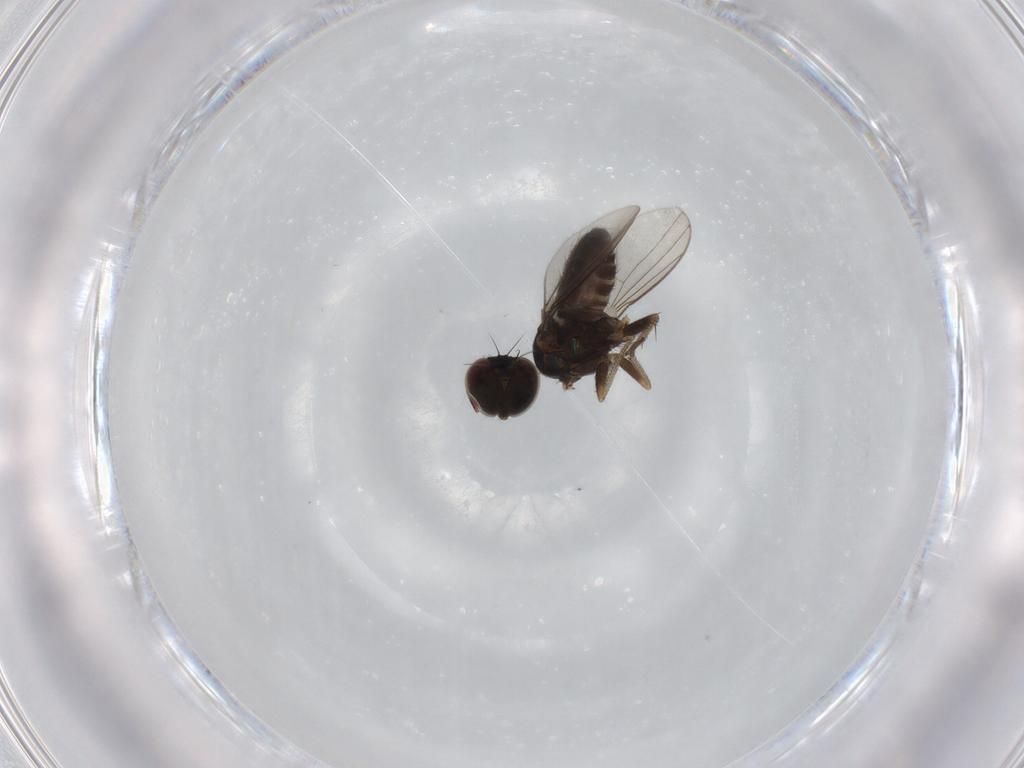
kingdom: Animalia
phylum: Arthropoda
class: Insecta
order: Diptera
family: Dolichopodidae
